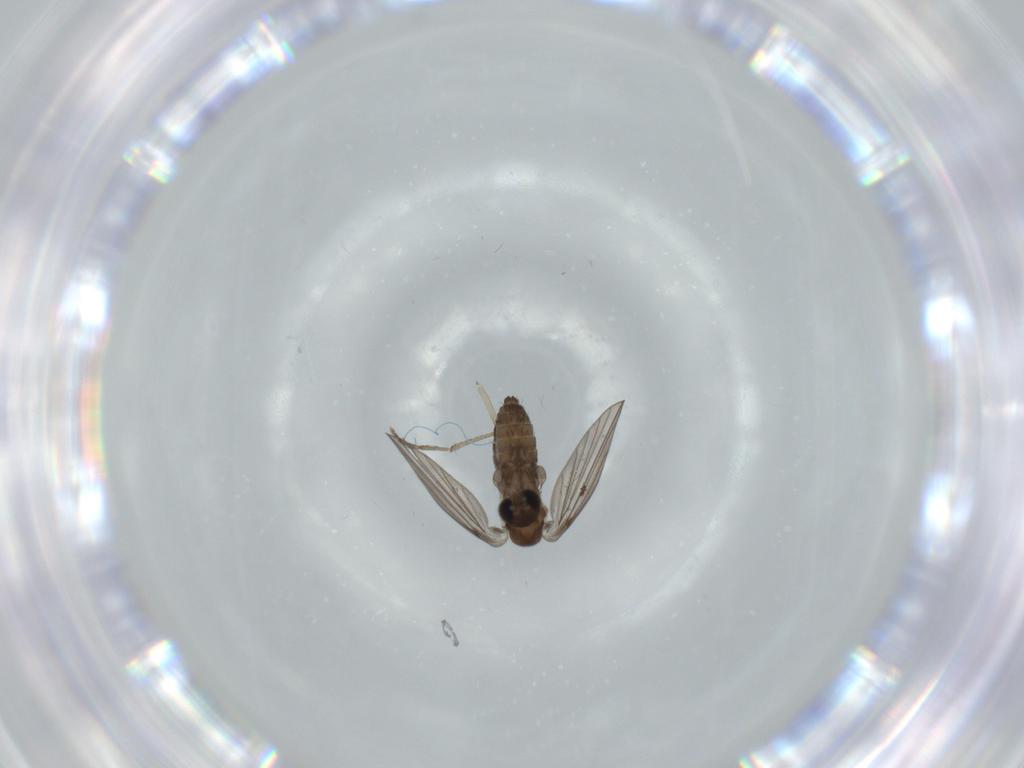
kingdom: Animalia
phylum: Arthropoda
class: Insecta
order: Diptera
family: Psychodidae
